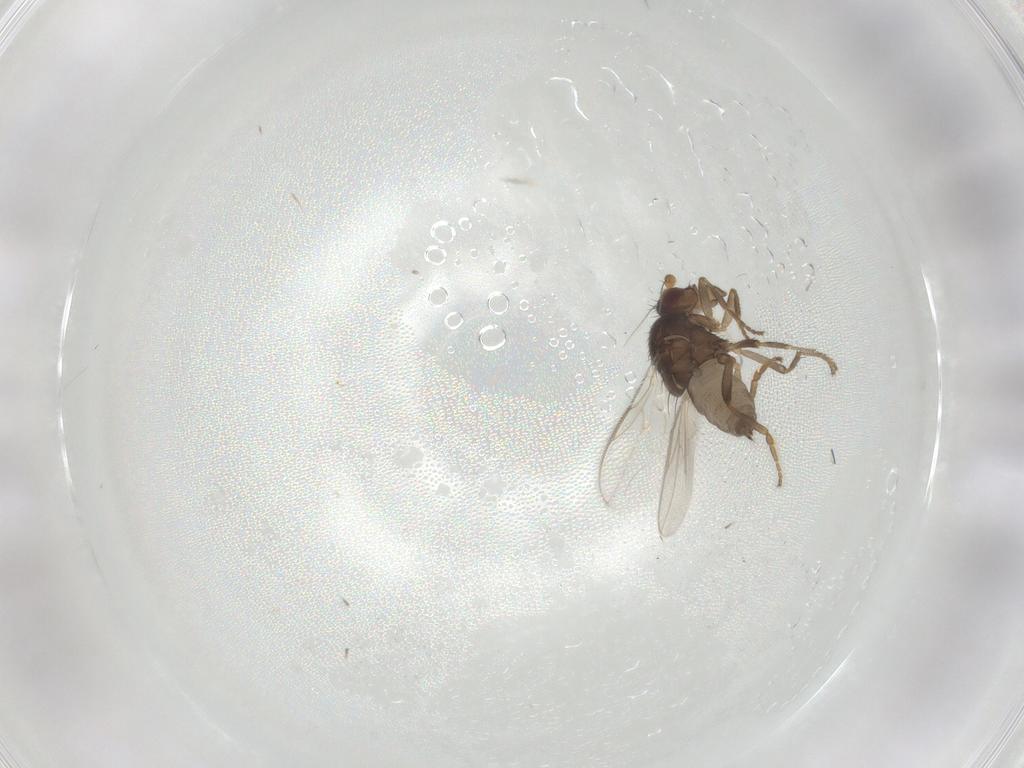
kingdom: Animalia
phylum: Arthropoda
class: Insecta
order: Diptera
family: Sphaeroceridae
